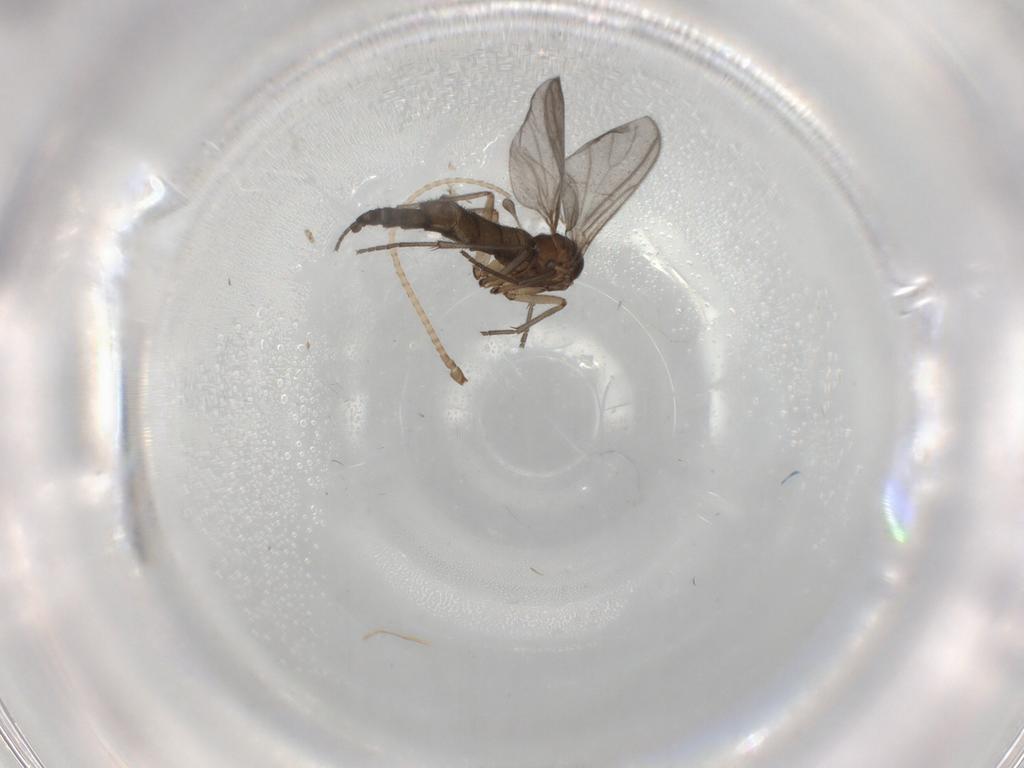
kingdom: Animalia
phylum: Arthropoda
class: Insecta
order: Diptera
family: Sciaridae
